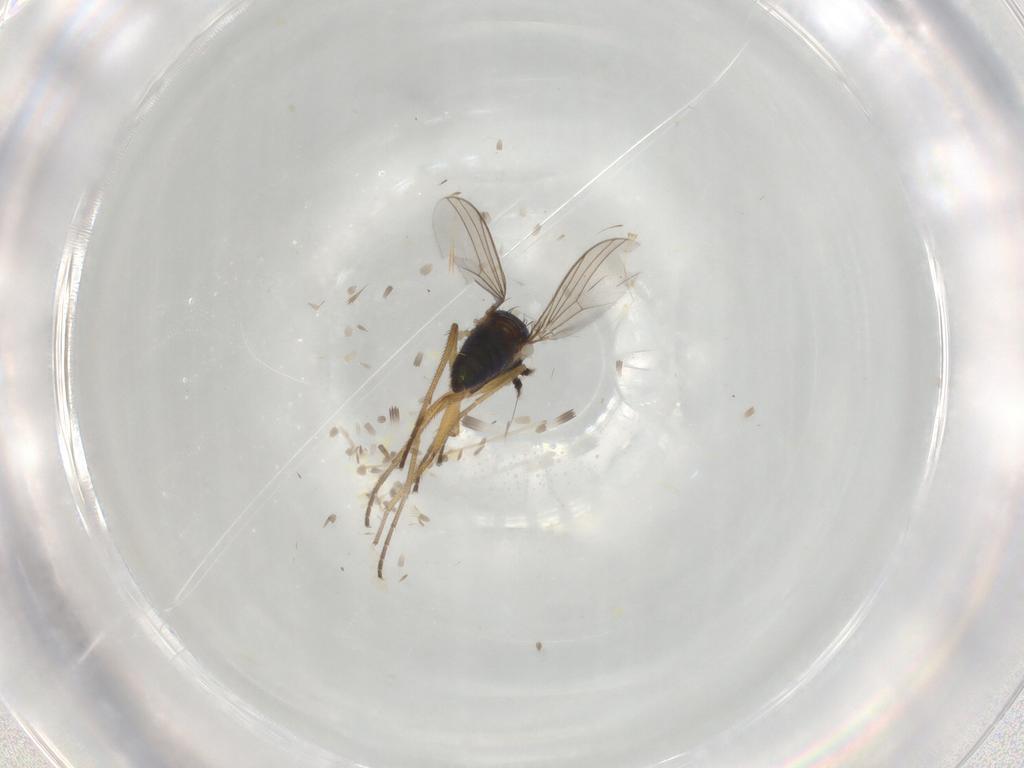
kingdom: Animalia
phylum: Arthropoda
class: Insecta
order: Diptera
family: Dolichopodidae
